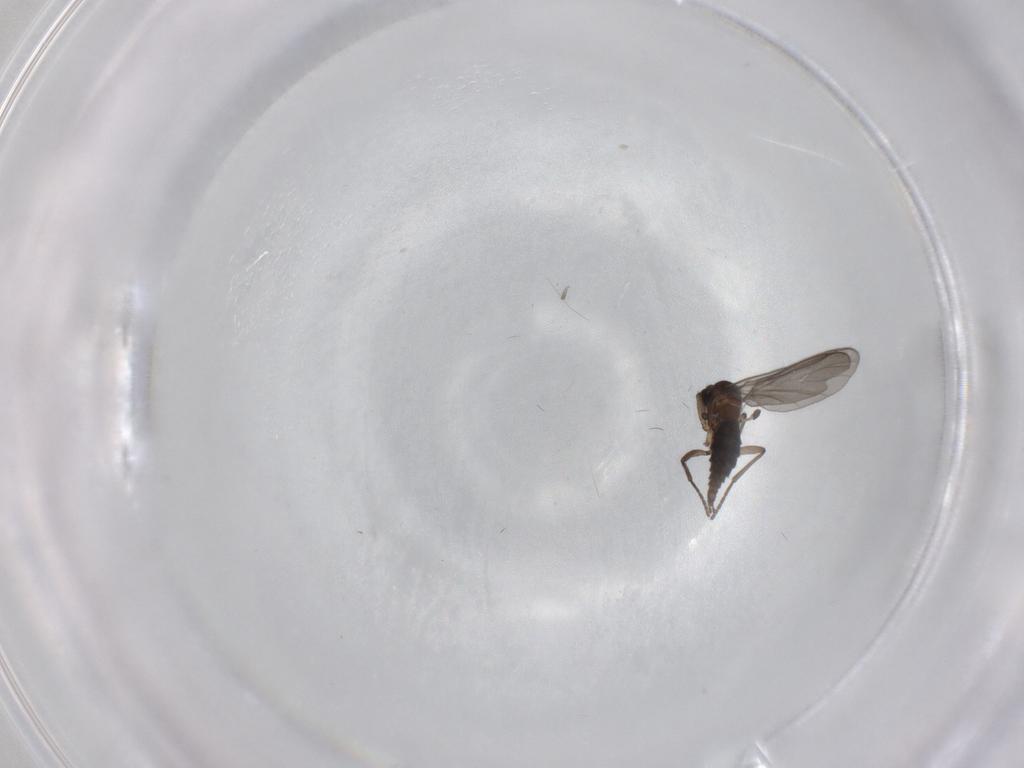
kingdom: Animalia
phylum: Arthropoda
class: Insecta
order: Diptera
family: Sciaridae
